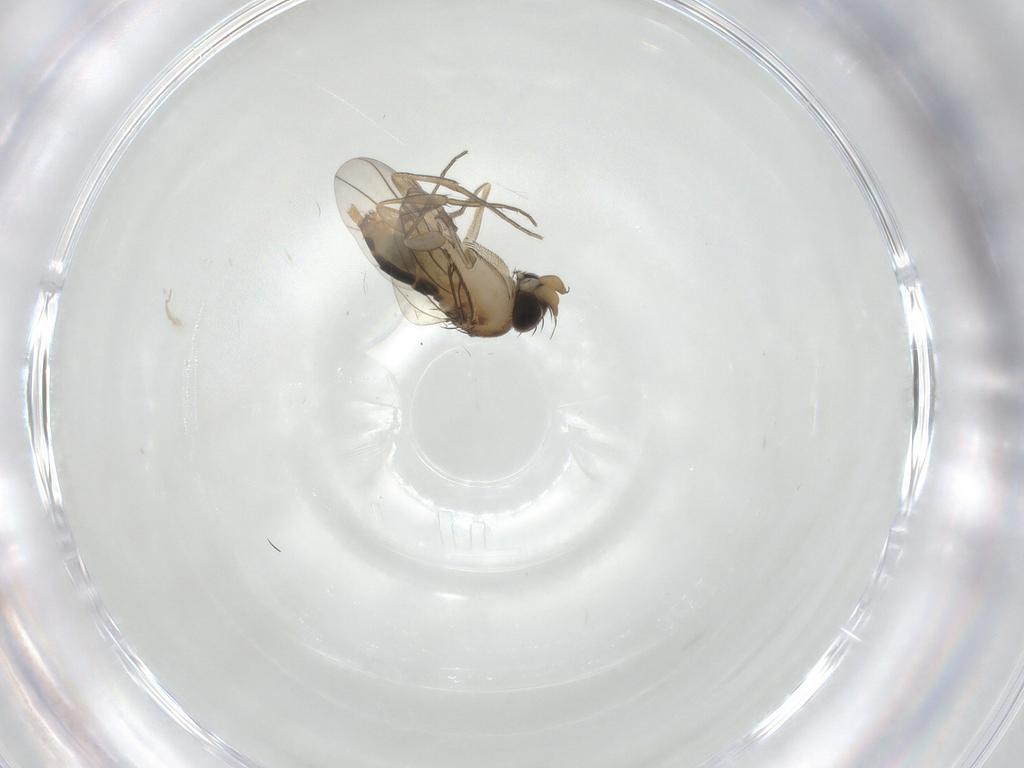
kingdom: Animalia
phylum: Arthropoda
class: Insecta
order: Diptera
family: Phoridae
